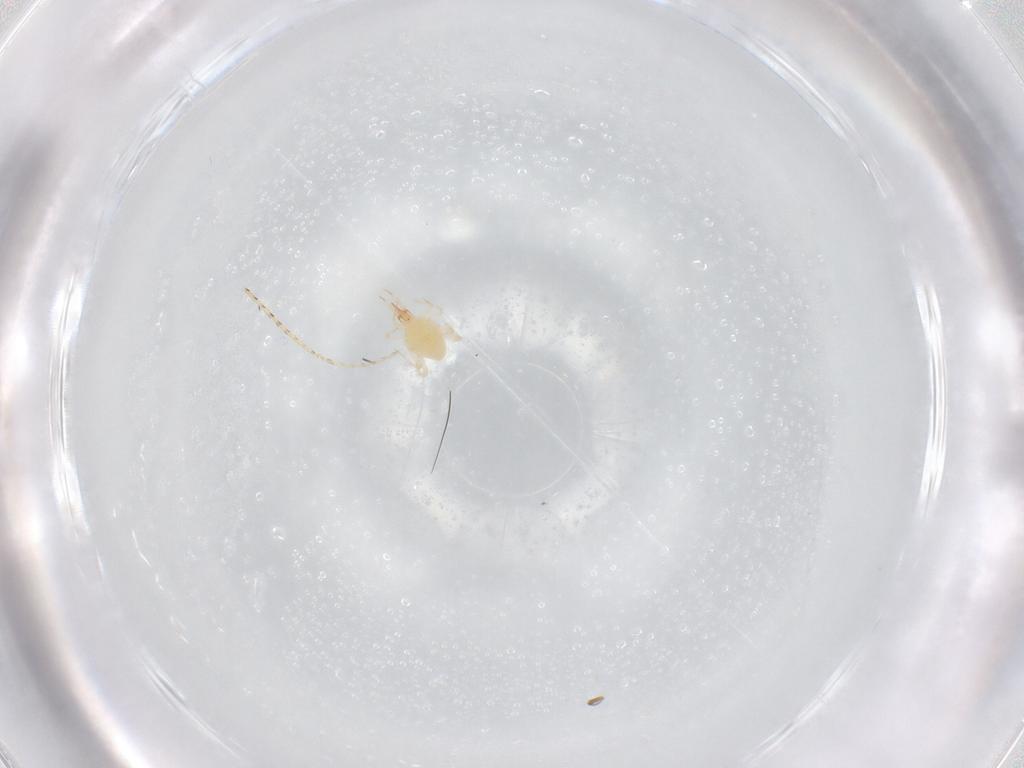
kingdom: Animalia
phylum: Arthropoda
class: Arachnida
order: Trombidiformes
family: Cunaxidae
